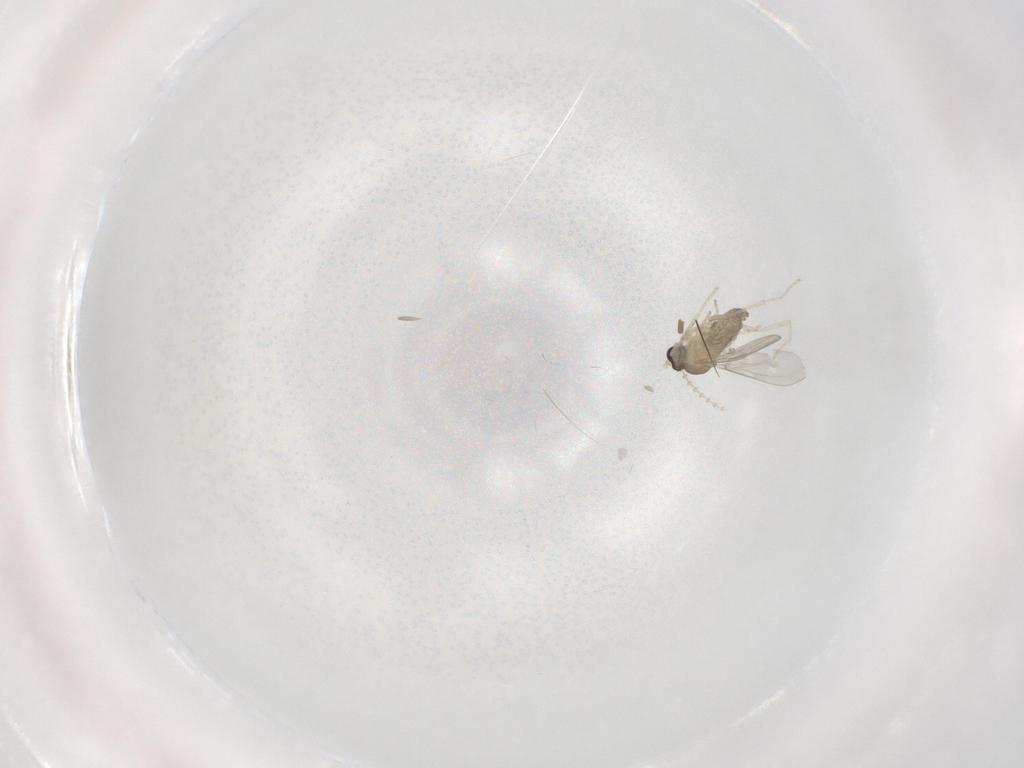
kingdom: Animalia
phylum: Arthropoda
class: Insecta
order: Diptera
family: Cecidomyiidae
